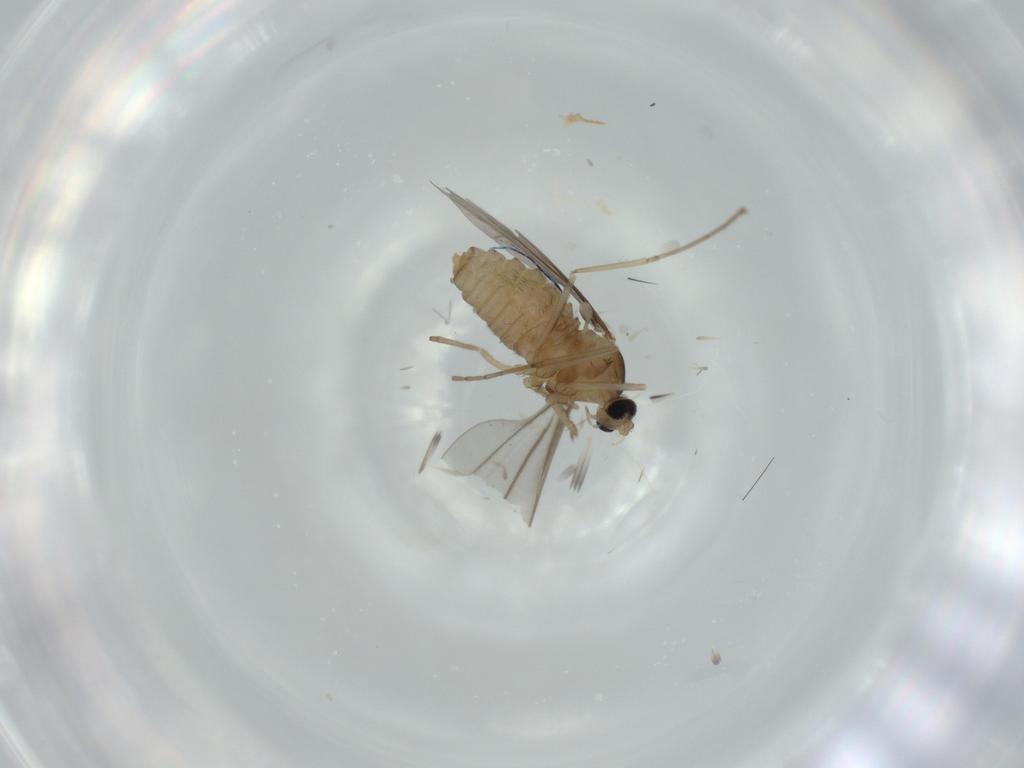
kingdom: Animalia
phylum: Arthropoda
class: Insecta
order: Diptera
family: Cecidomyiidae
